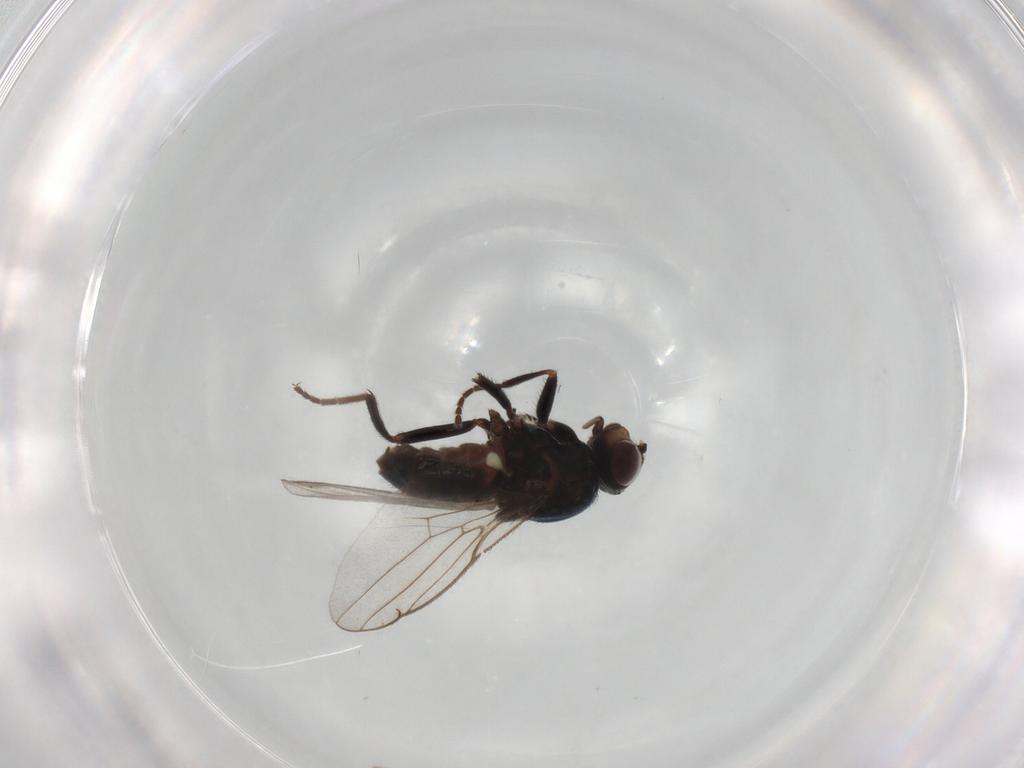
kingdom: Animalia
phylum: Arthropoda
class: Insecta
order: Diptera
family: Chloropidae
